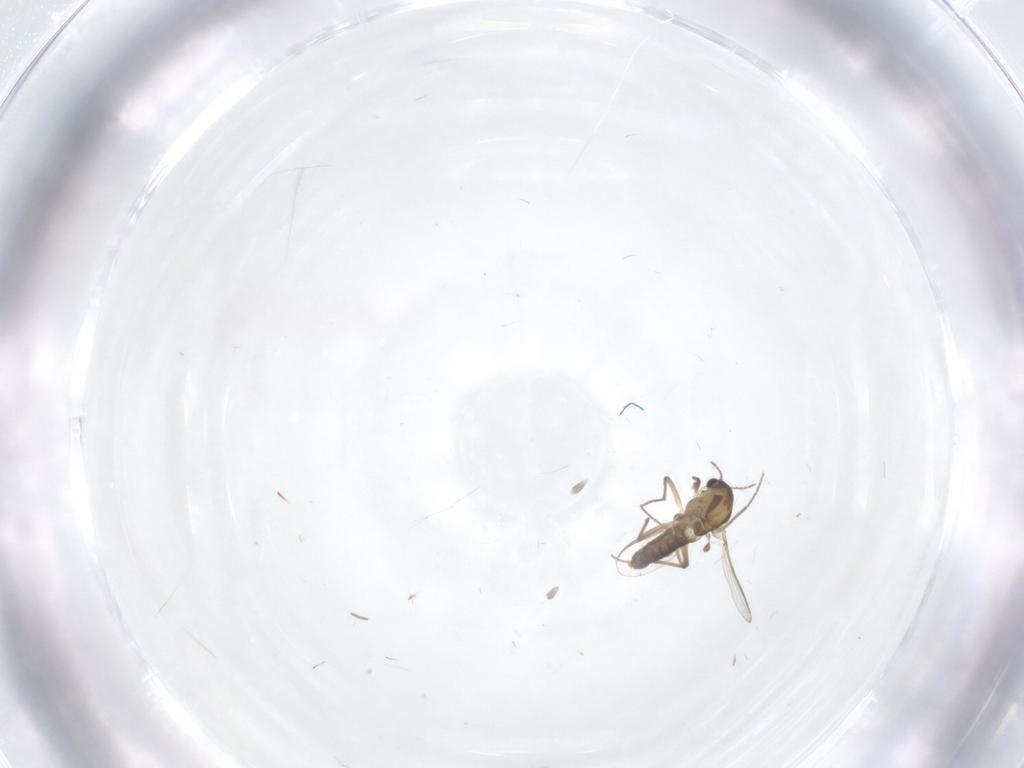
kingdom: Animalia
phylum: Arthropoda
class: Insecta
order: Diptera
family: Chironomidae
